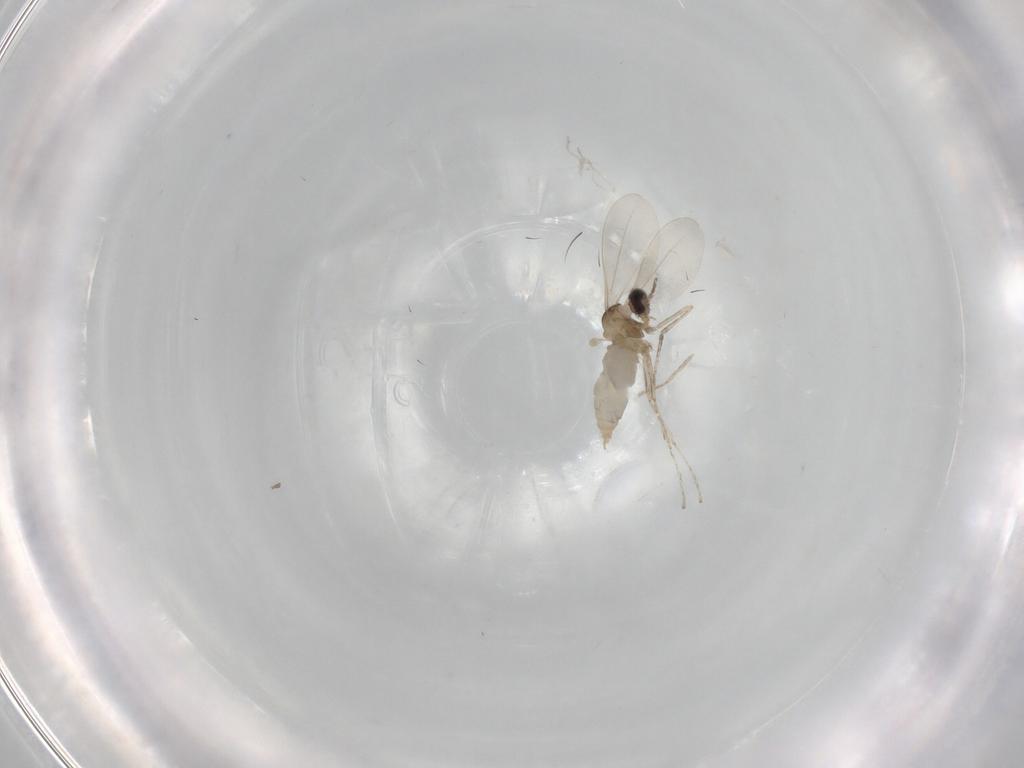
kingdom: Animalia
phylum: Arthropoda
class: Insecta
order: Diptera
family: Cecidomyiidae
